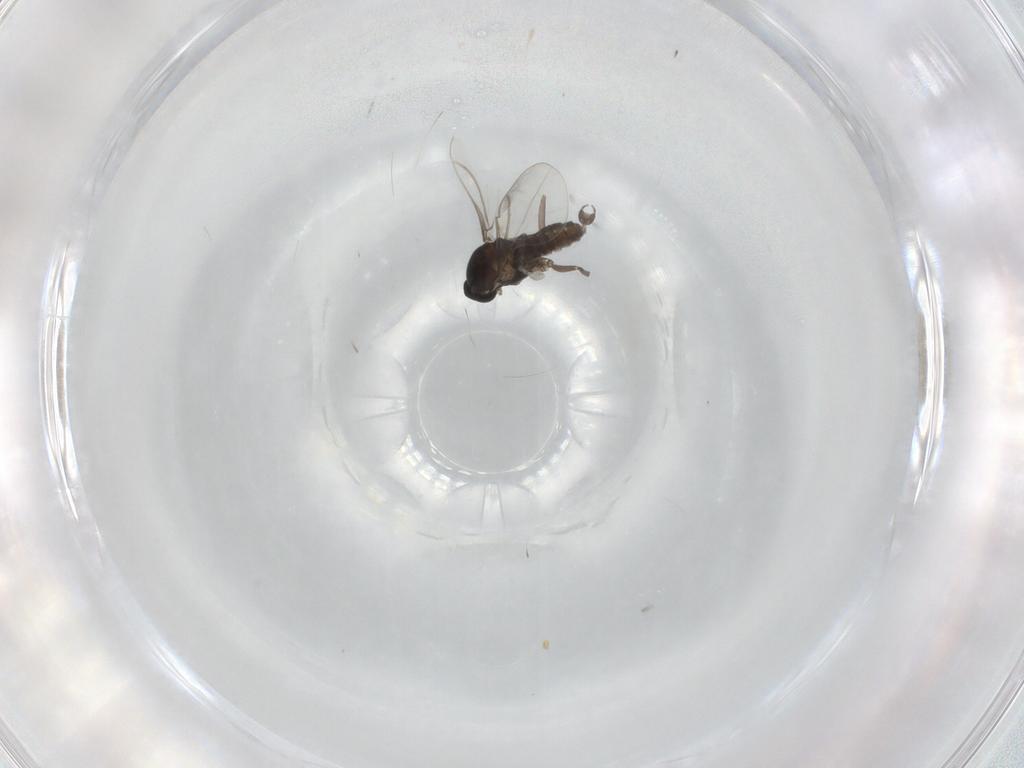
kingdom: Animalia
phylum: Arthropoda
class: Insecta
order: Diptera
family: Cecidomyiidae
